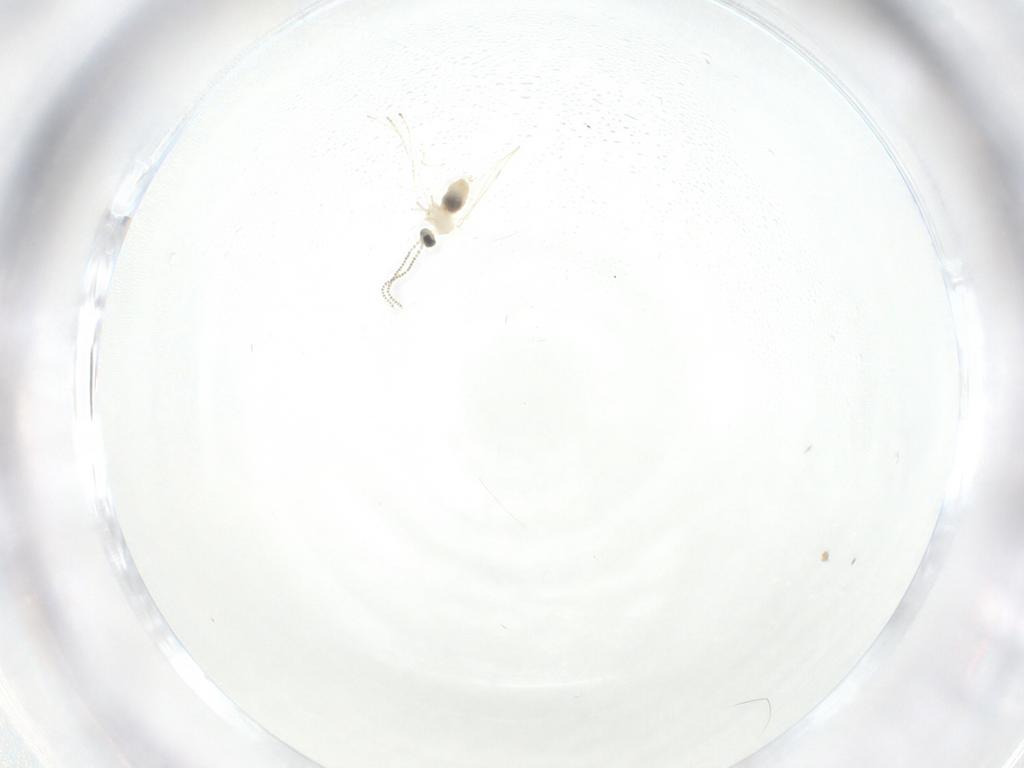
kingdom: Animalia
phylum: Arthropoda
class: Insecta
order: Diptera
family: Cecidomyiidae
